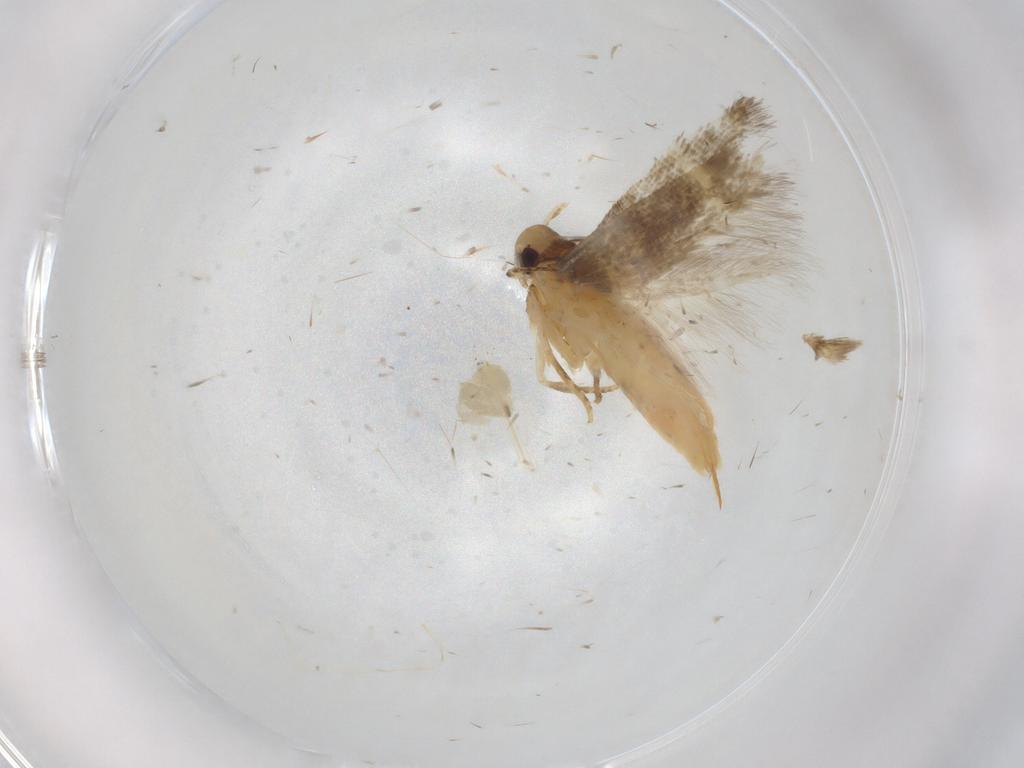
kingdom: Animalia
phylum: Arthropoda
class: Insecta
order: Lepidoptera
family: Cosmopterigidae
